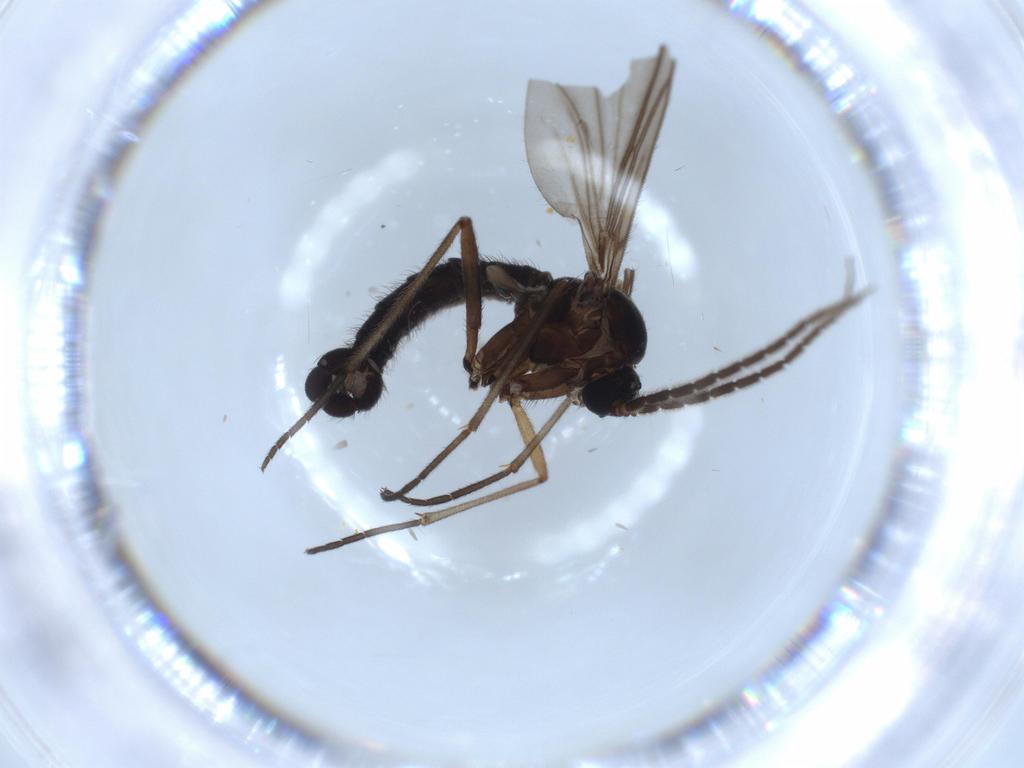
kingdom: Animalia
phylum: Arthropoda
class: Insecta
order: Diptera
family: Sciaridae
